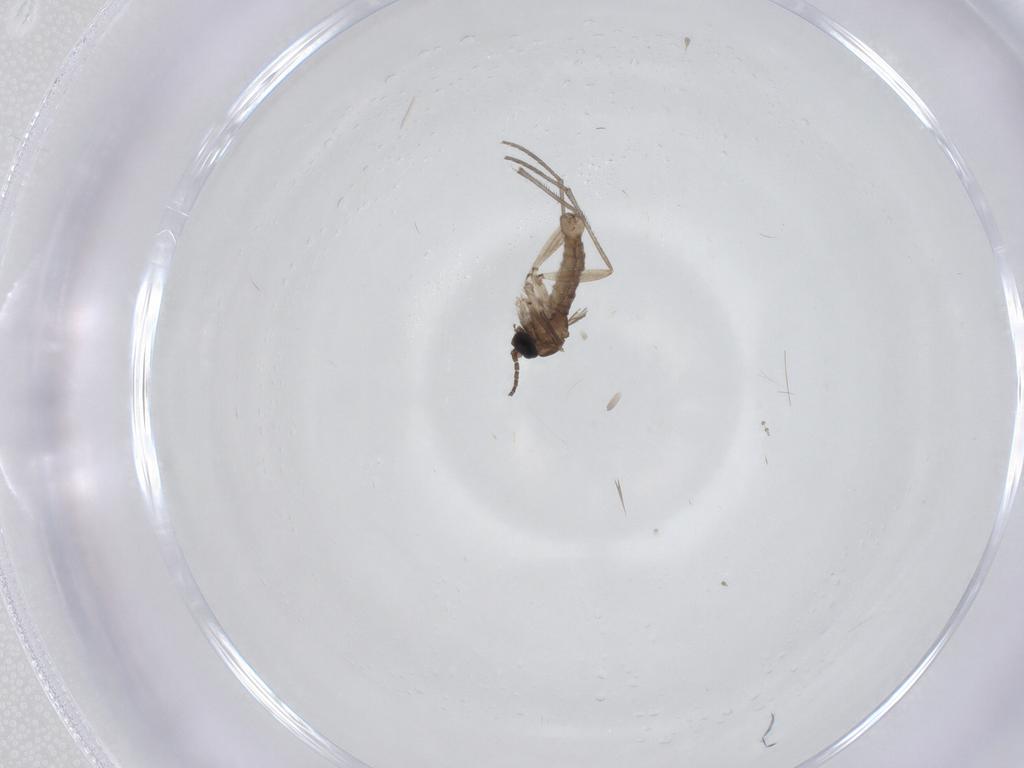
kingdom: Animalia
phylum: Arthropoda
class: Insecta
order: Diptera
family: Sciaridae
